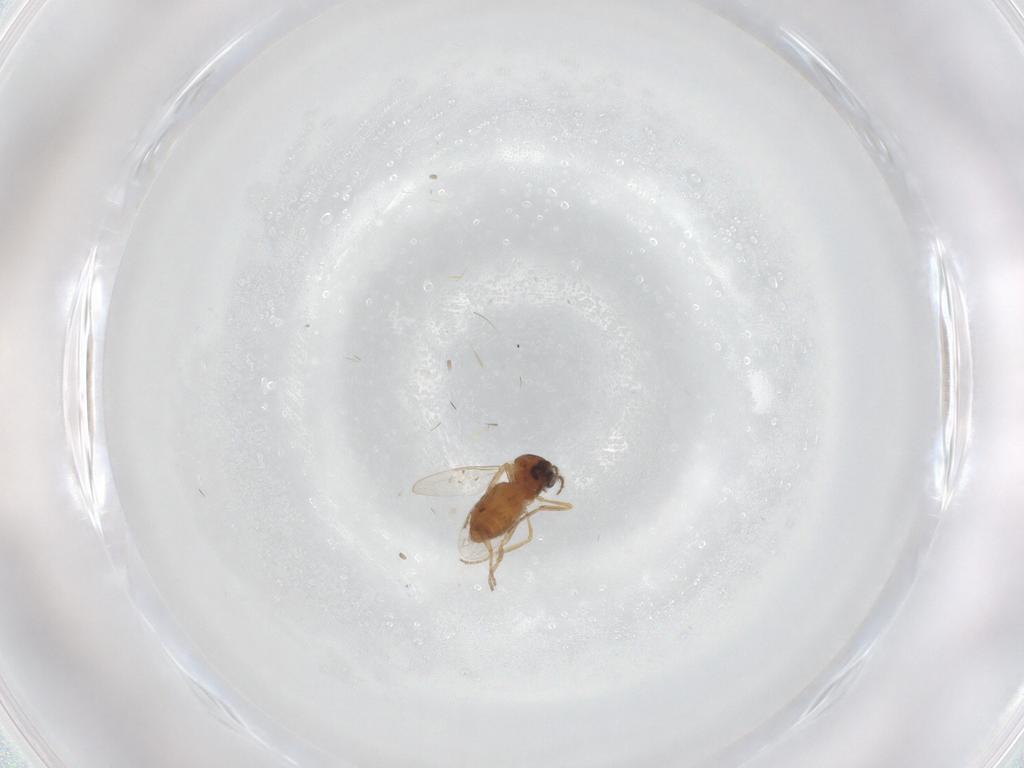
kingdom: Animalia
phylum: Arthropoda
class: Insecta
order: Diptera
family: Ceratopogonidae
